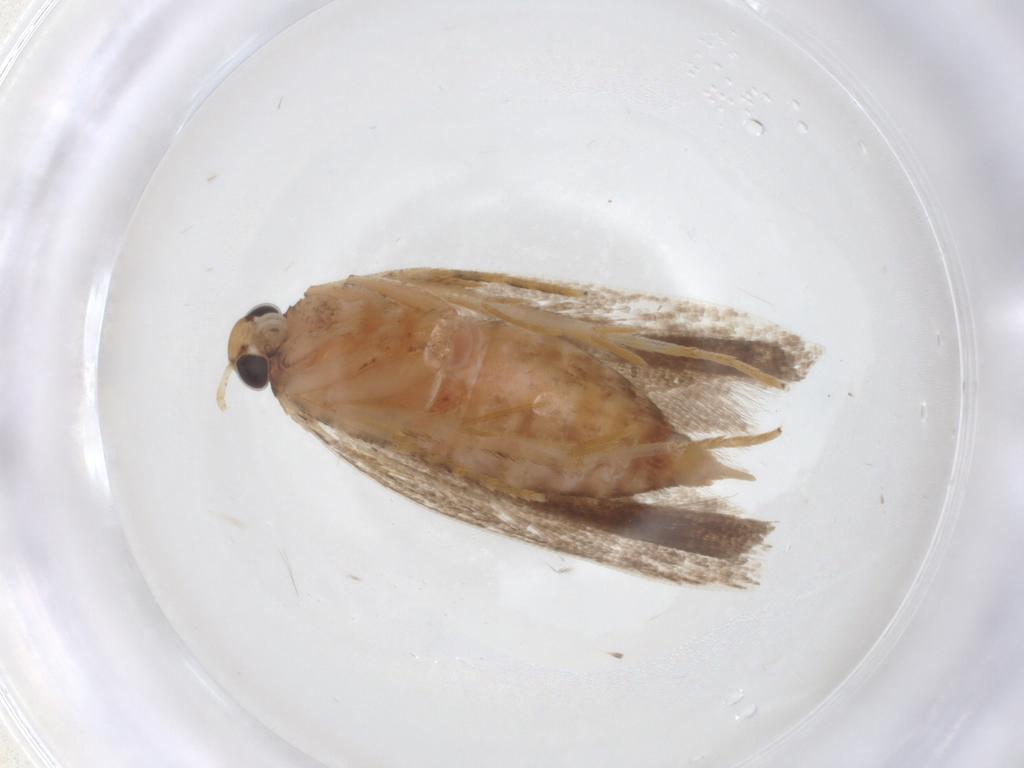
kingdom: Animalia
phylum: Arthropoda
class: Insecta
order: Lepidoptera
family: Gelechiidae
